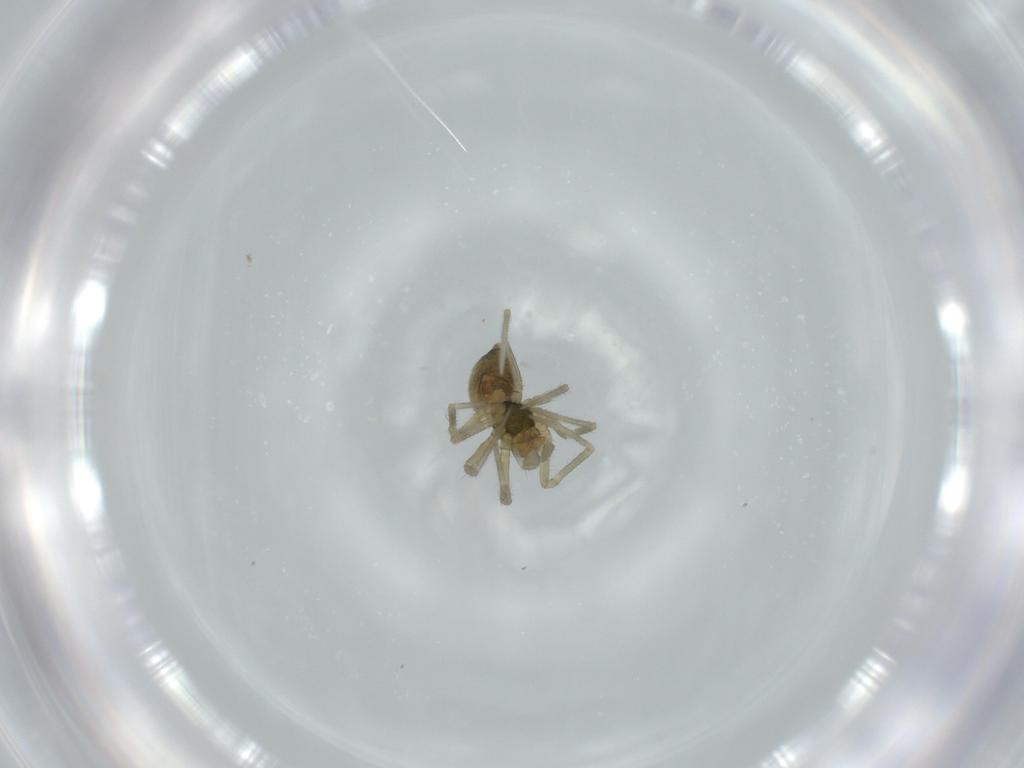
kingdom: Animalia
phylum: Arthropoda
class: Arachnida
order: Araneae
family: Linyphiidae
